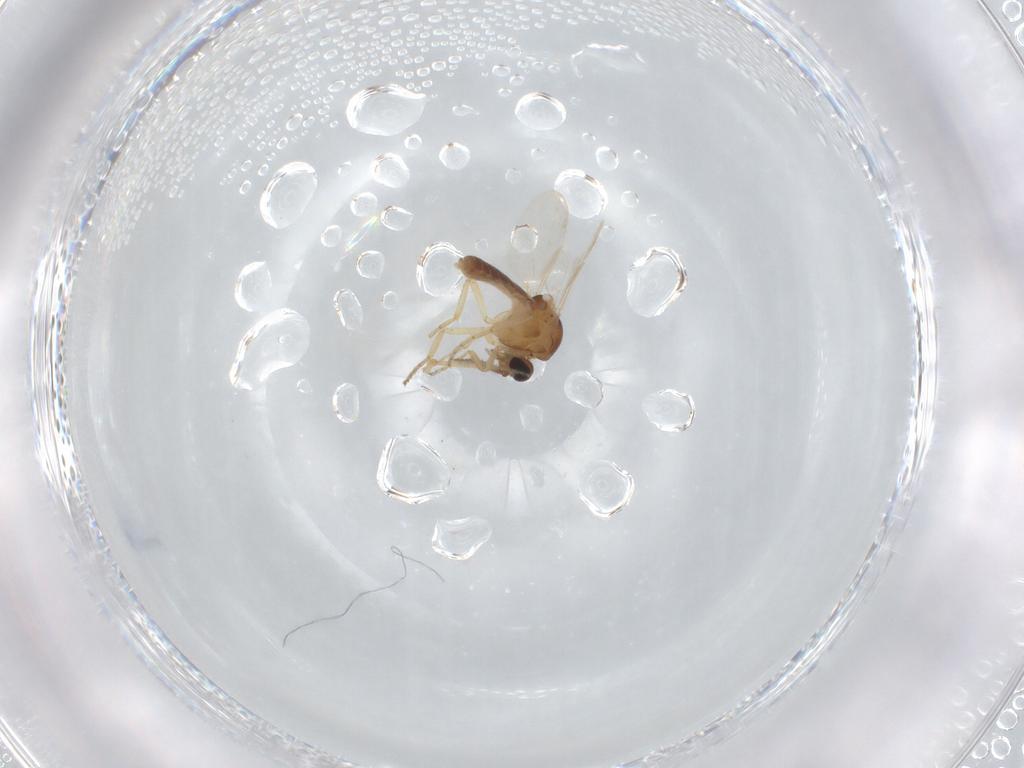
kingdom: Animalia
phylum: Arthropoda
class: Insecta
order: Diptera
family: Ceratopogonidae
